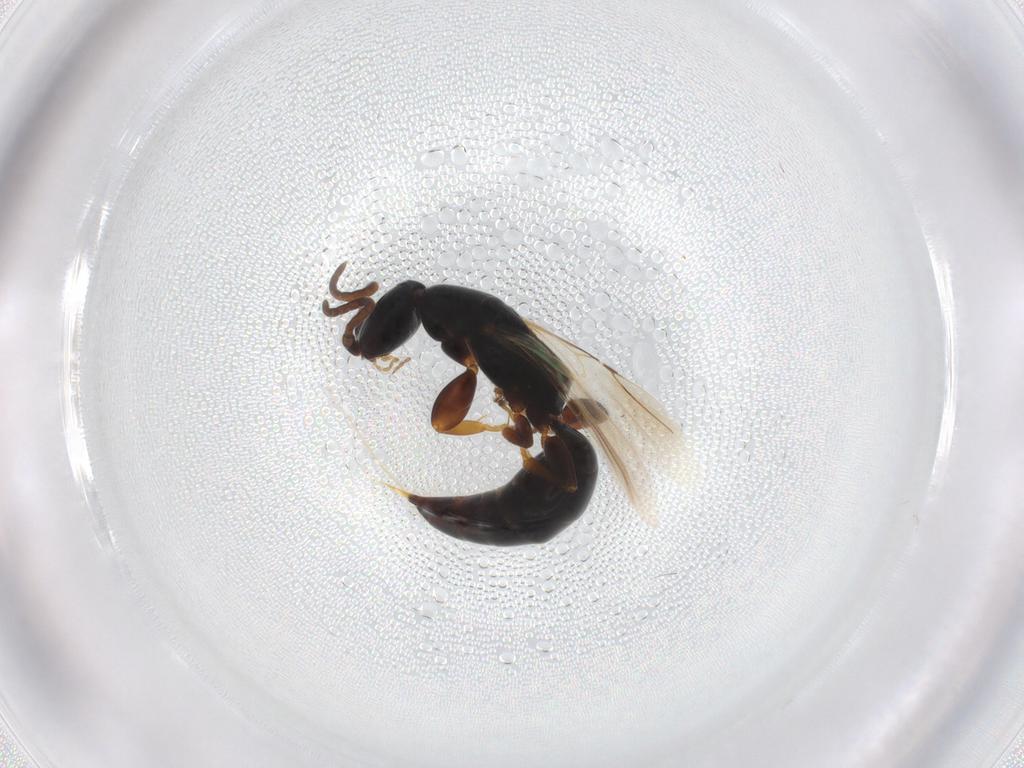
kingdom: Animalia
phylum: Arthropoda
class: Insecta
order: Hymenoptera
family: Bethylidae
